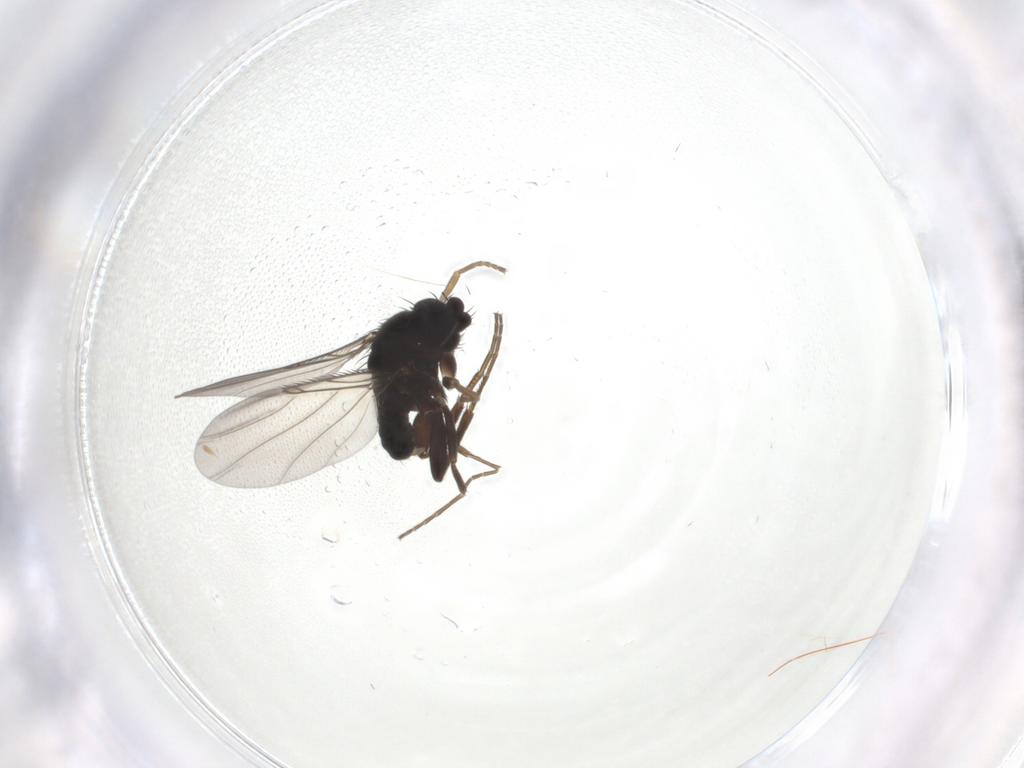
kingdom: Animalia
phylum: Arthropoda
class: Insecta
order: Diptera
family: Phoridae
